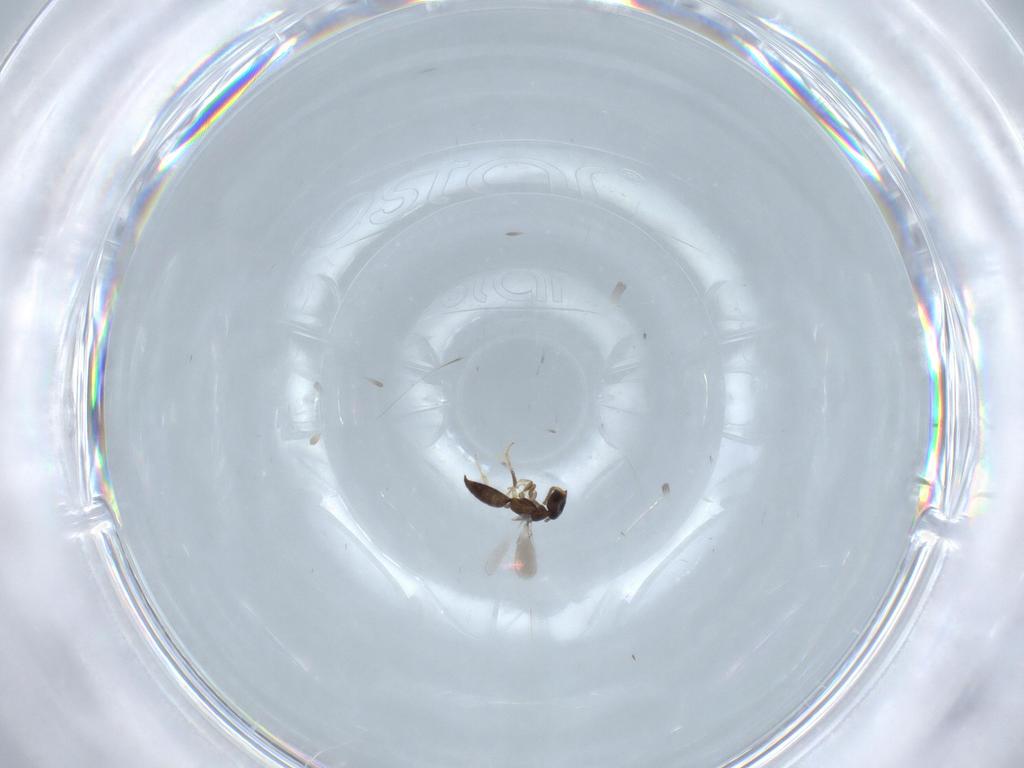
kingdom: Animalia
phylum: Arthropoda
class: Insecta
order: Hymenoptera
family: Bethylidae
